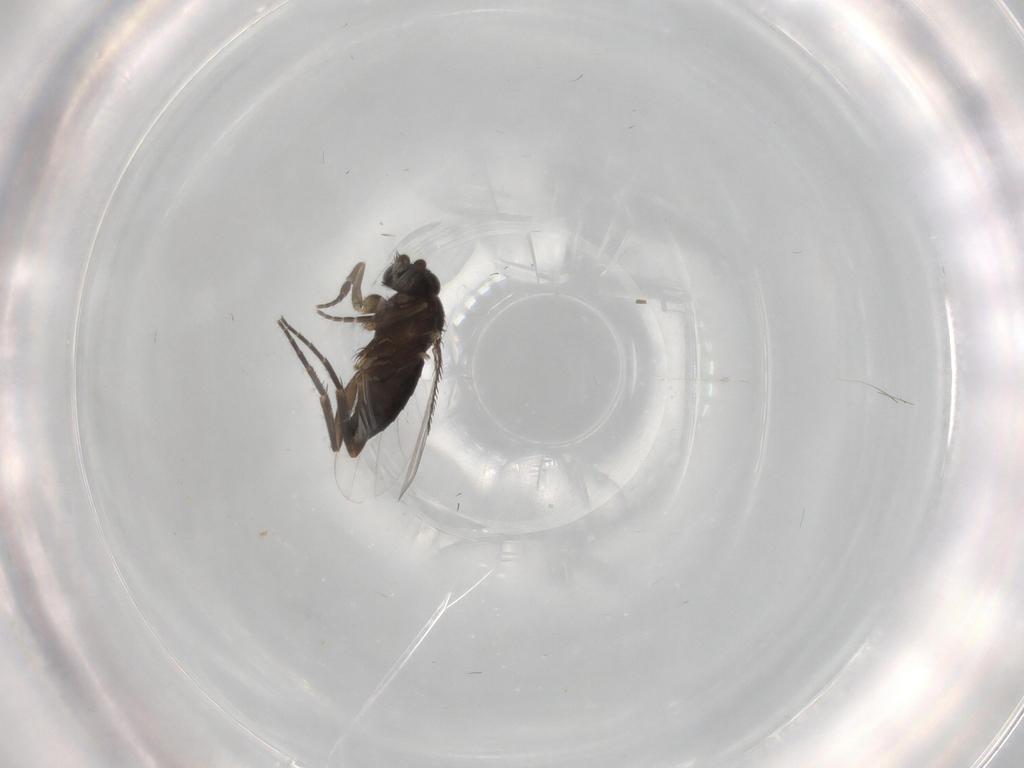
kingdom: Animalia
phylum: Arthropoda
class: Insecta
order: Diptera
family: Phoridae
